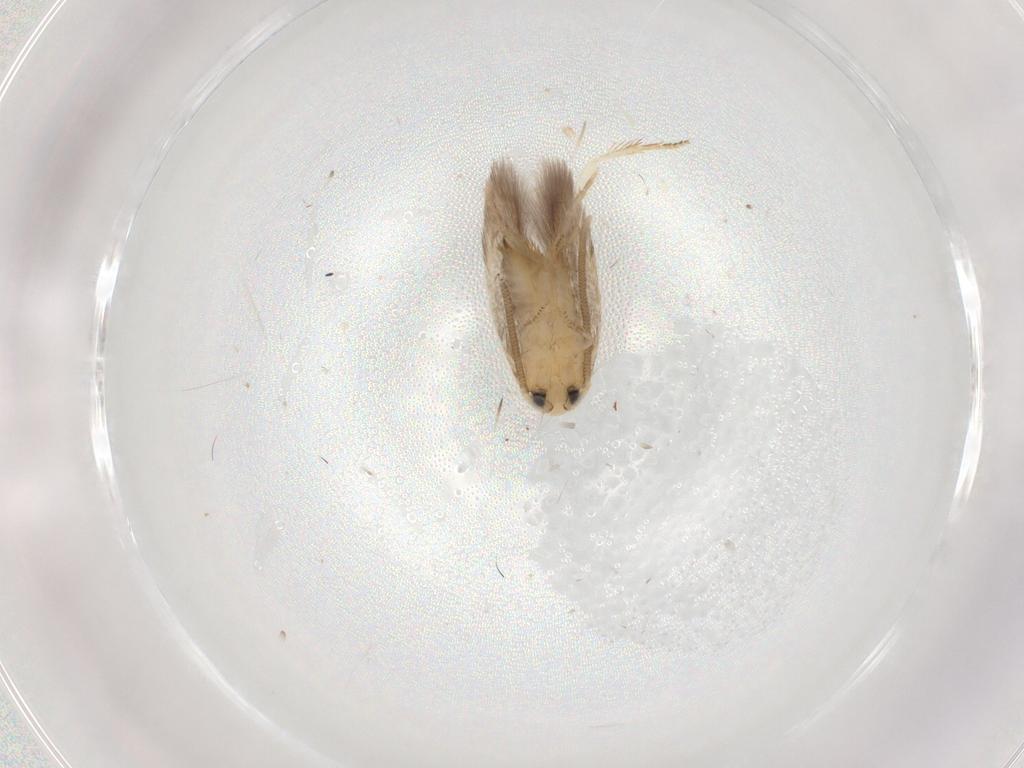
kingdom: Animalia
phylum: Arthropoda
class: Insecta
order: Lepidoptera
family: Opostegidae
